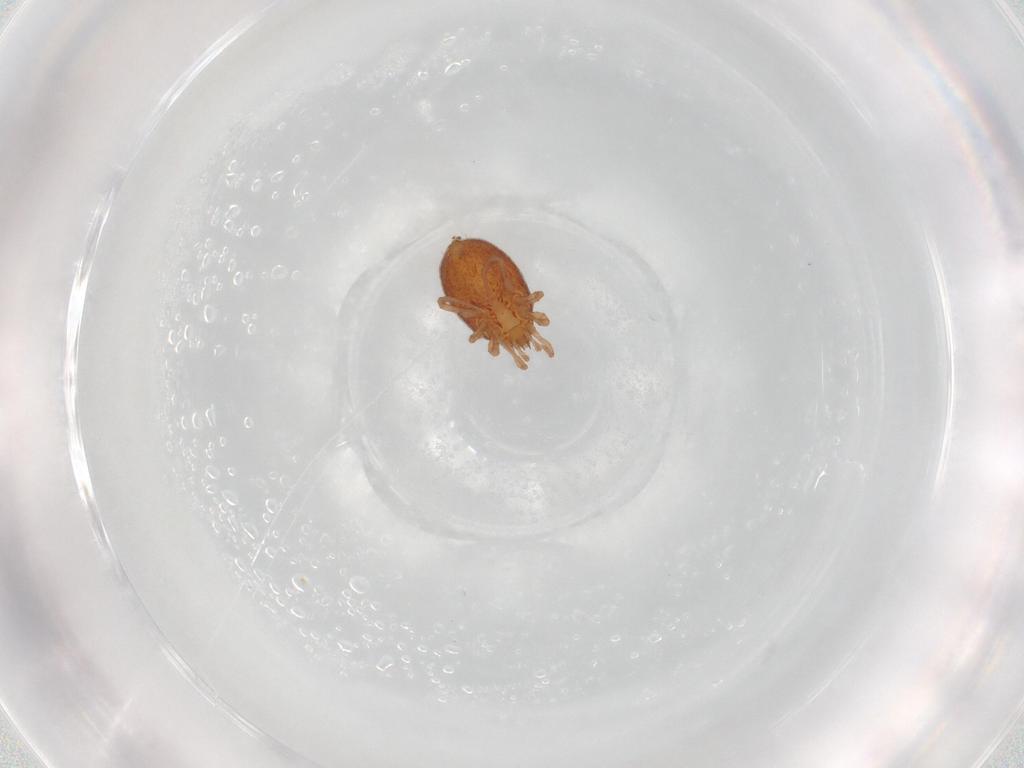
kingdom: Animalia
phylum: Arthropoda
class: Arachnida
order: Mesostigmata
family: Parasitidae
